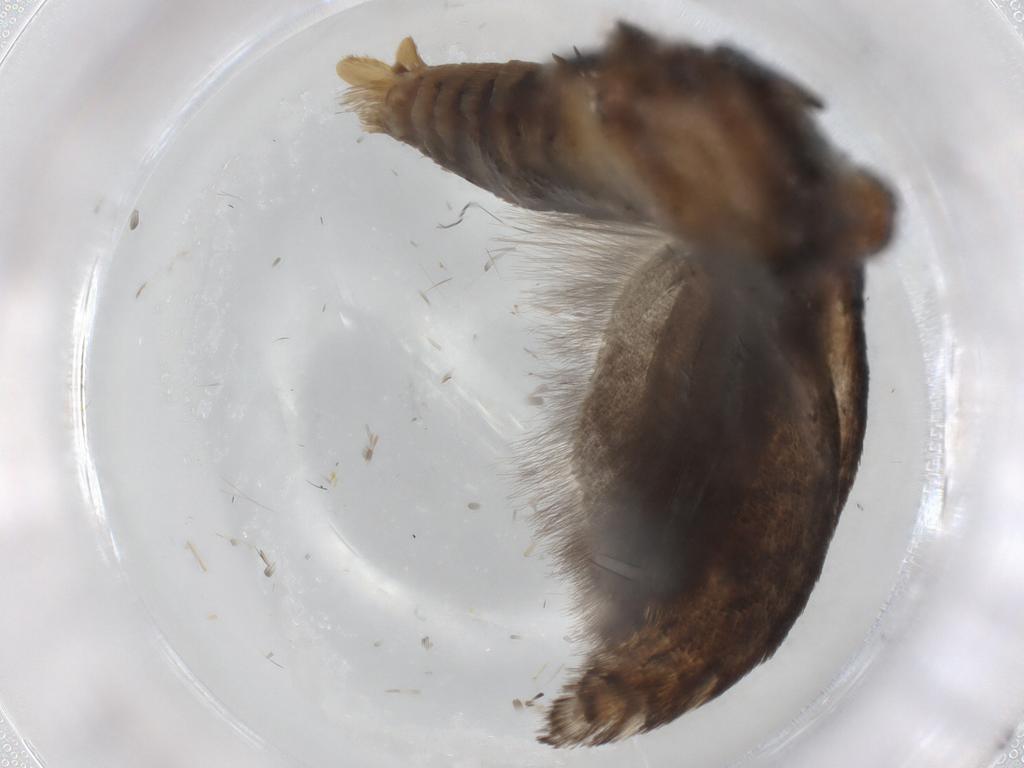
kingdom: Animalia
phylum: Arthropoda
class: Insecta
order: Lepidoptera
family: Crambidae
